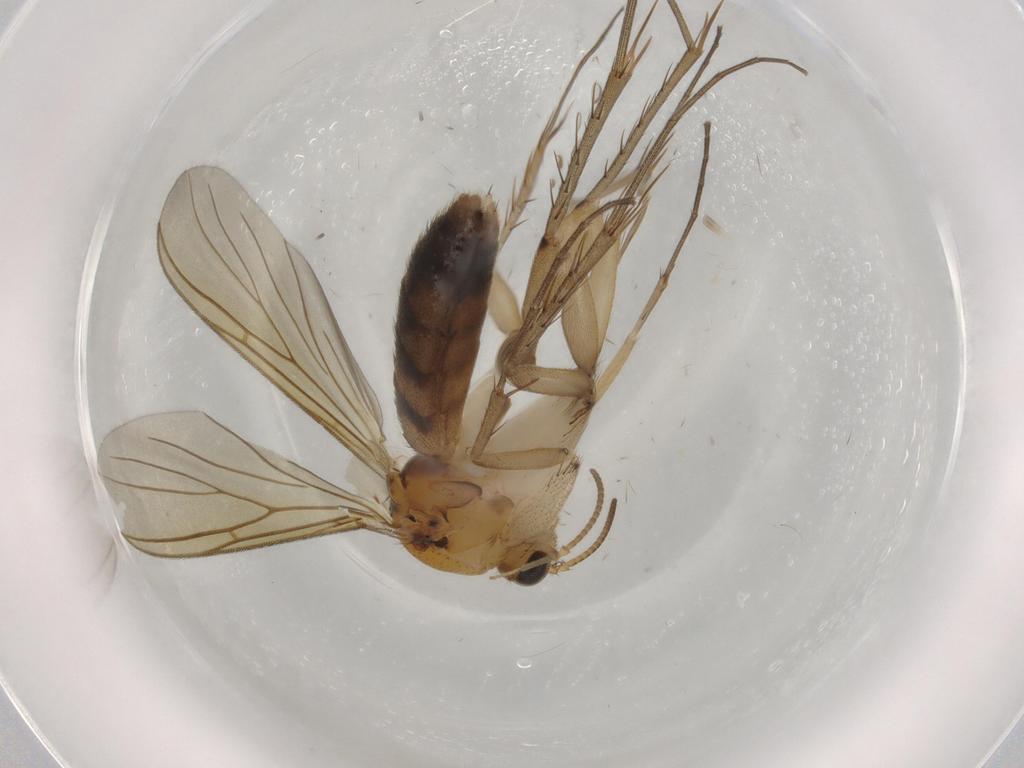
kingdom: Animalia
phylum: Arthropoda
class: Insecta
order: Diptera
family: Mycetophilidae
